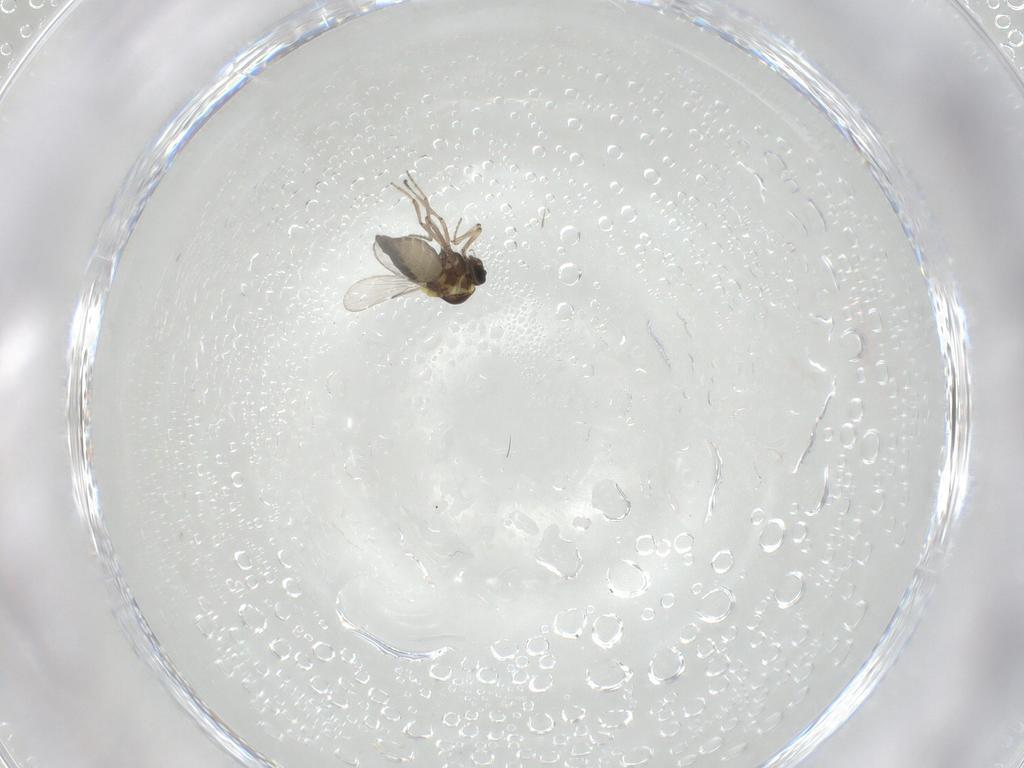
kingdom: Animalia
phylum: Arthropoda
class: Insecta
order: Diptera
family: Ceratopogonidae
